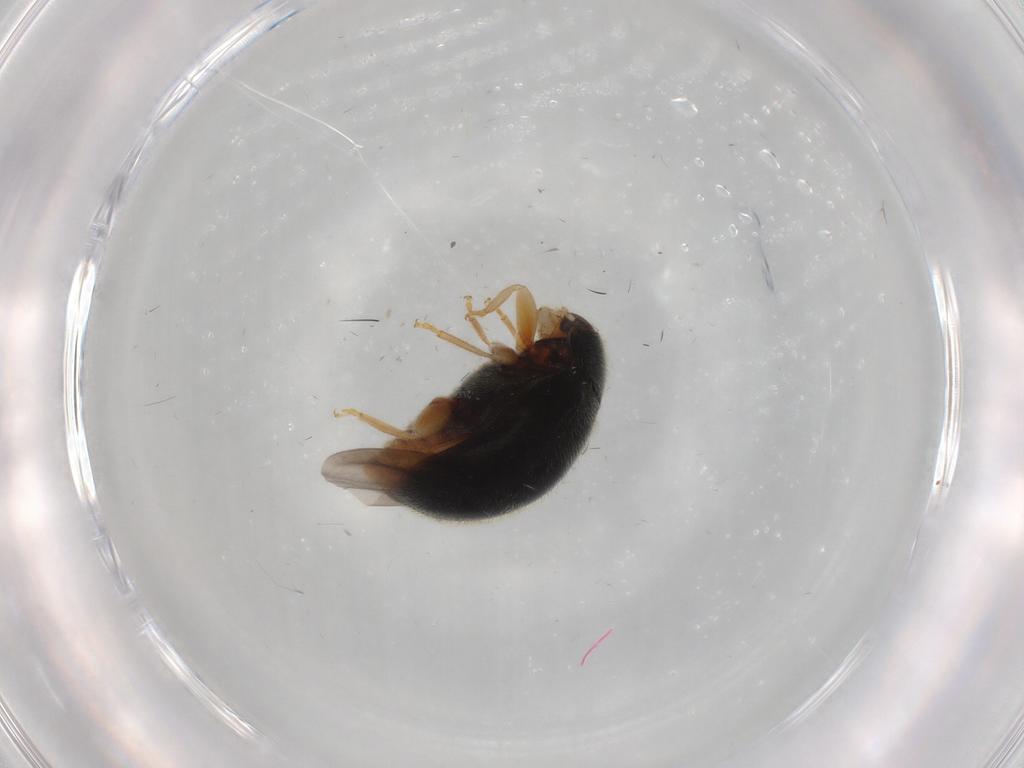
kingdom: Animalia
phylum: Arthropoda
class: Insecta
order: Coleoptera
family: Coccinellidae
